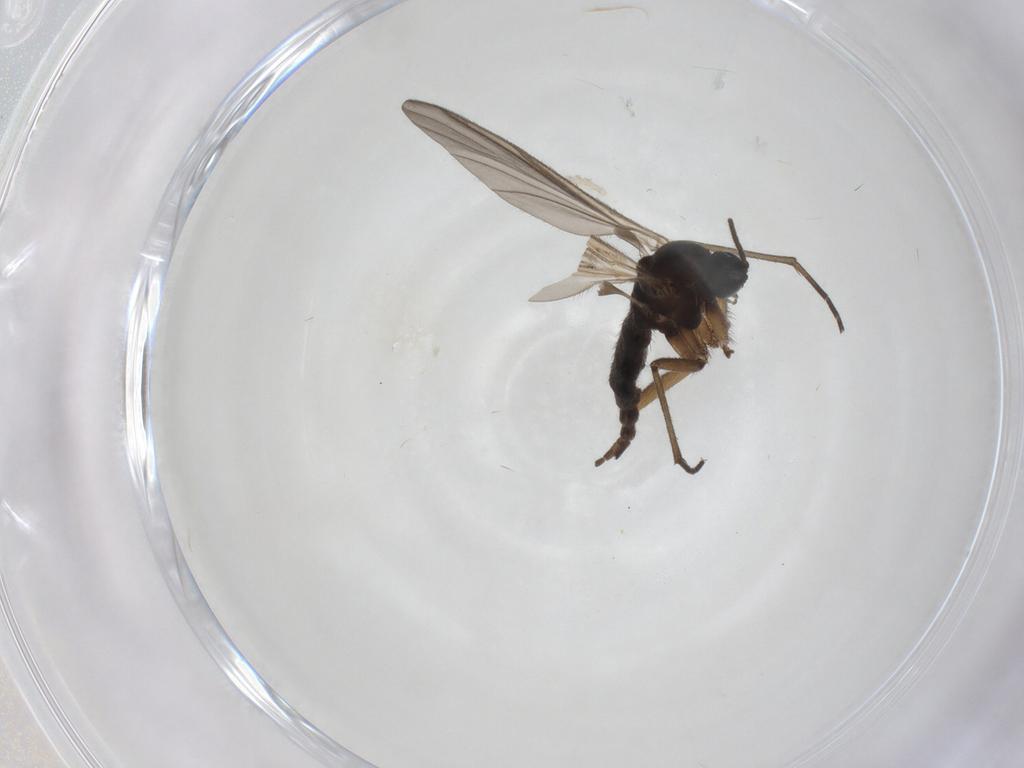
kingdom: Animalia
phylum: Arthropoda
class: Insecta
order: Diptera
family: Sciaridae
